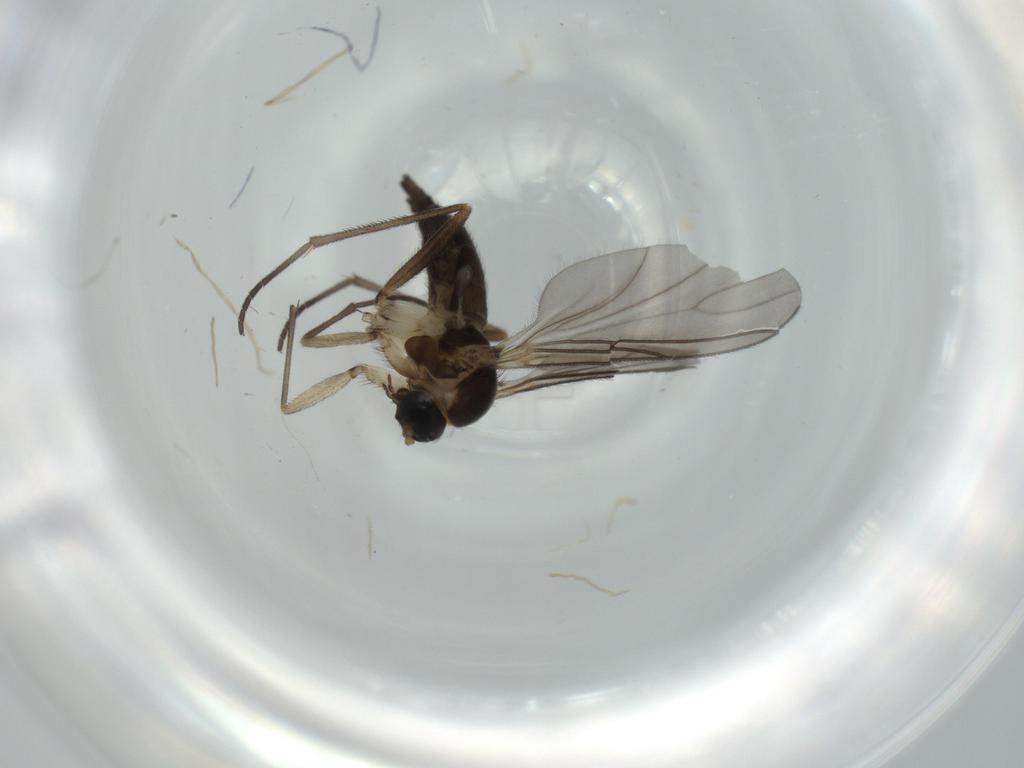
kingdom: Animalia
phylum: Arthropoda
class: Insecta
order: Diptera
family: Sciaridae
